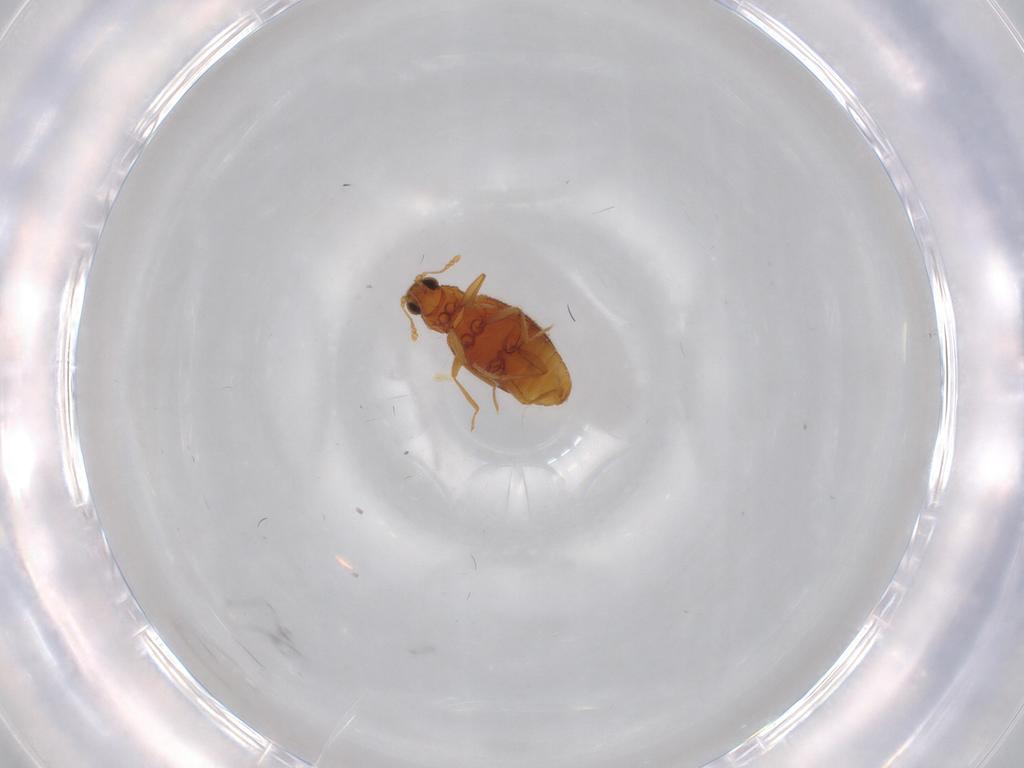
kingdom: Animalia
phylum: Arthropoda
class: Insecta
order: Coleoptera
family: Latridiidae
